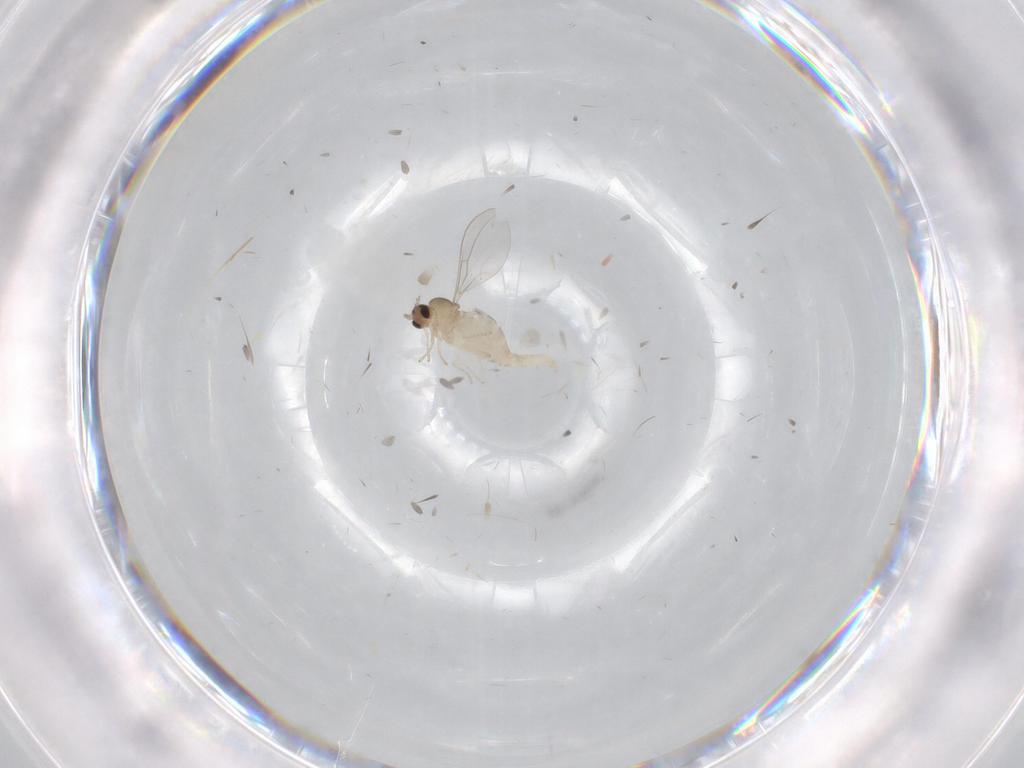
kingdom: Animalia
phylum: Arthropoda
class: Insecta
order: Diptera
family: Cecidomyiidae
